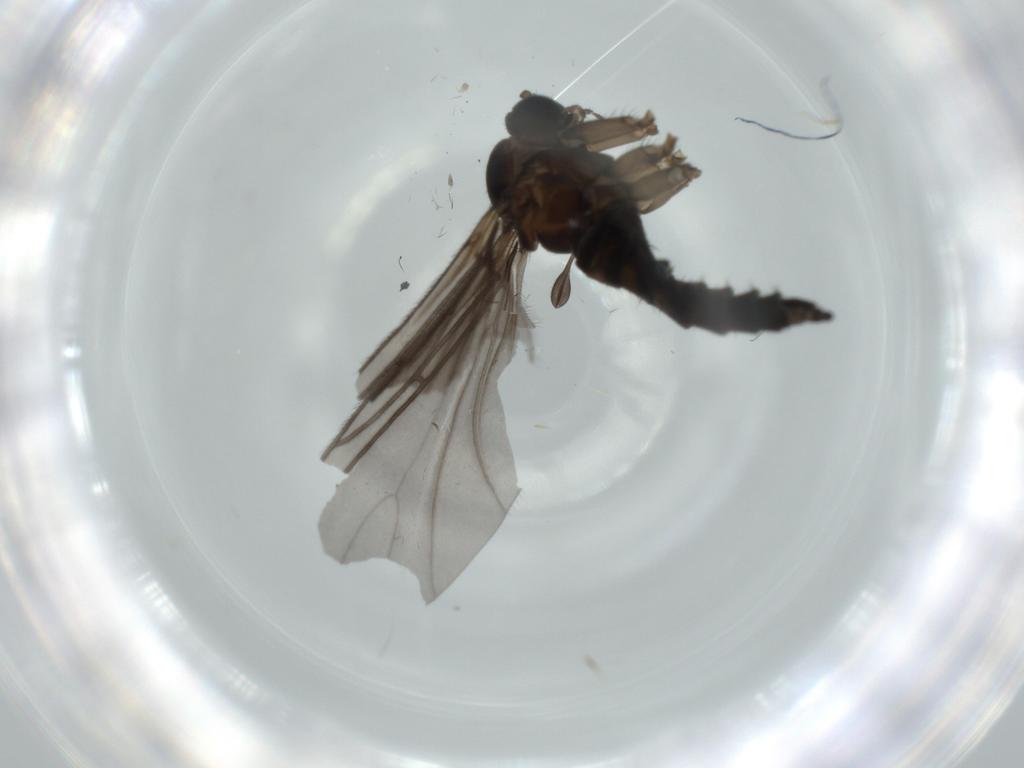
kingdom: Animalia
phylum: Arthropoda
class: Insecta
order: Diptera
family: Sciaridae
